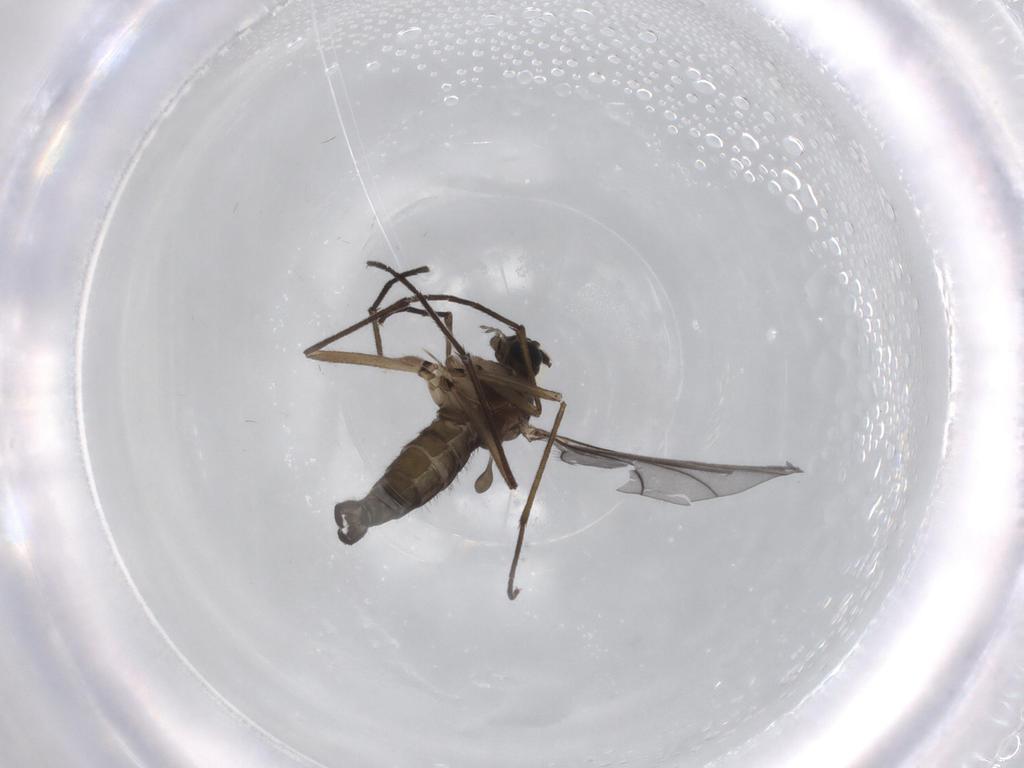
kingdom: Animalia
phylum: Arthropoda
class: Insecta
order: Diptera
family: Sciaridae
